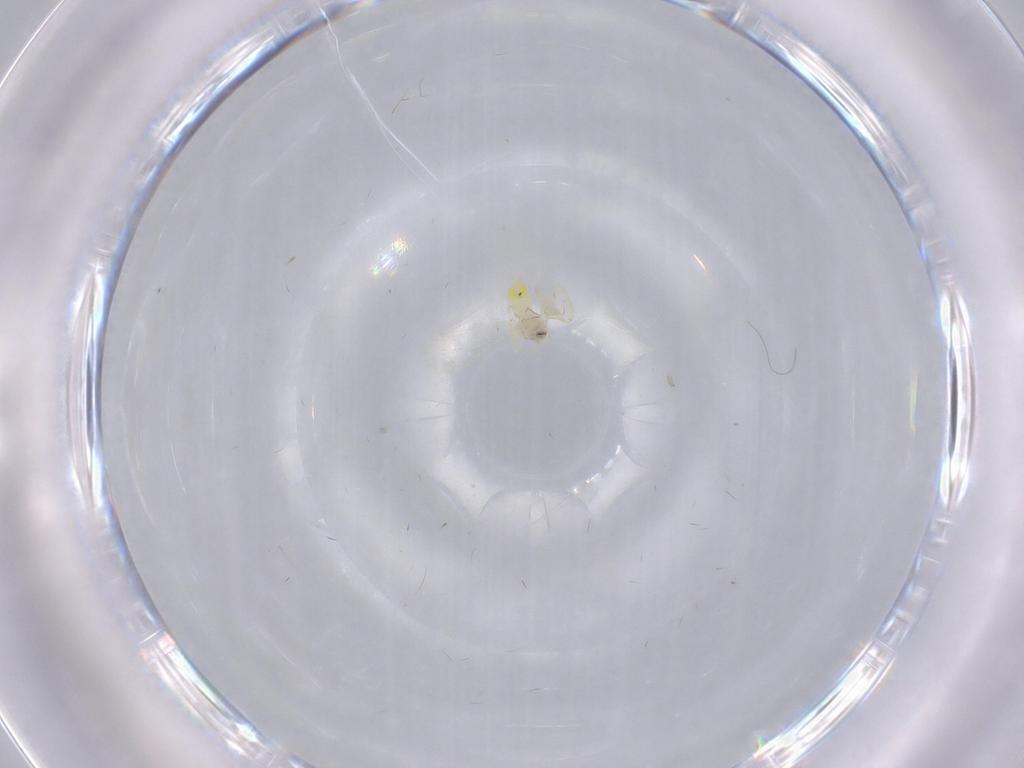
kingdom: Animalia
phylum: Arthropoda
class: Insecta
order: Hemiptera
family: Aleyrodidae
